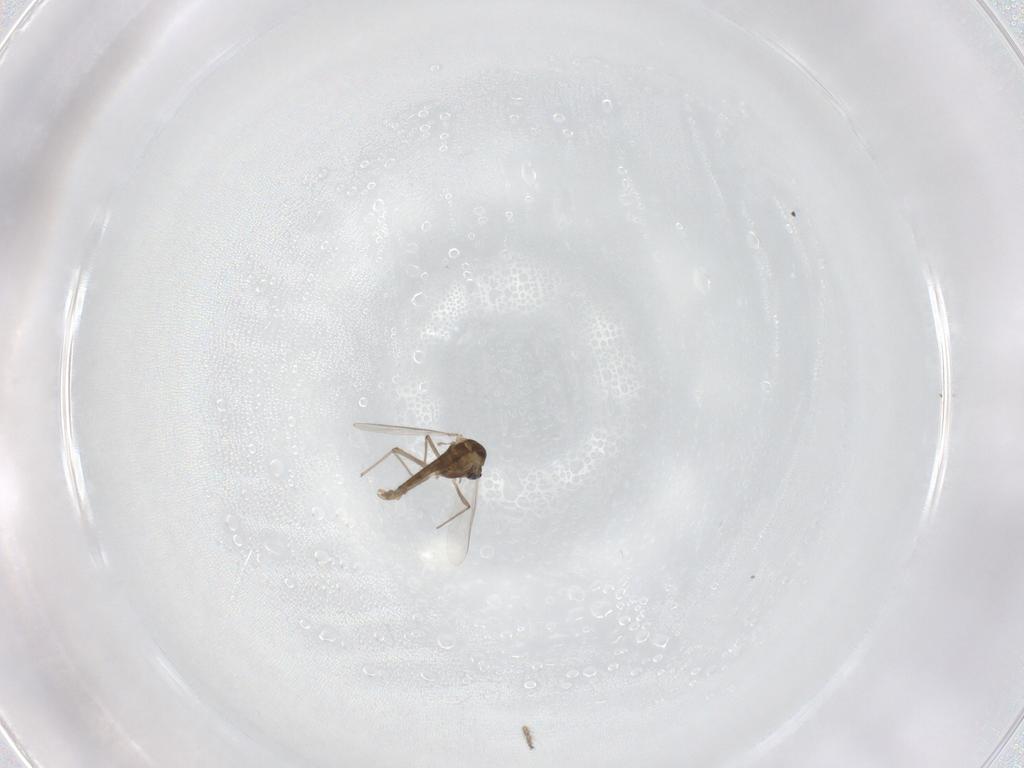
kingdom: Animalia
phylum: Arthropoda
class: Insecta
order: Diptera
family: Chironomidae
